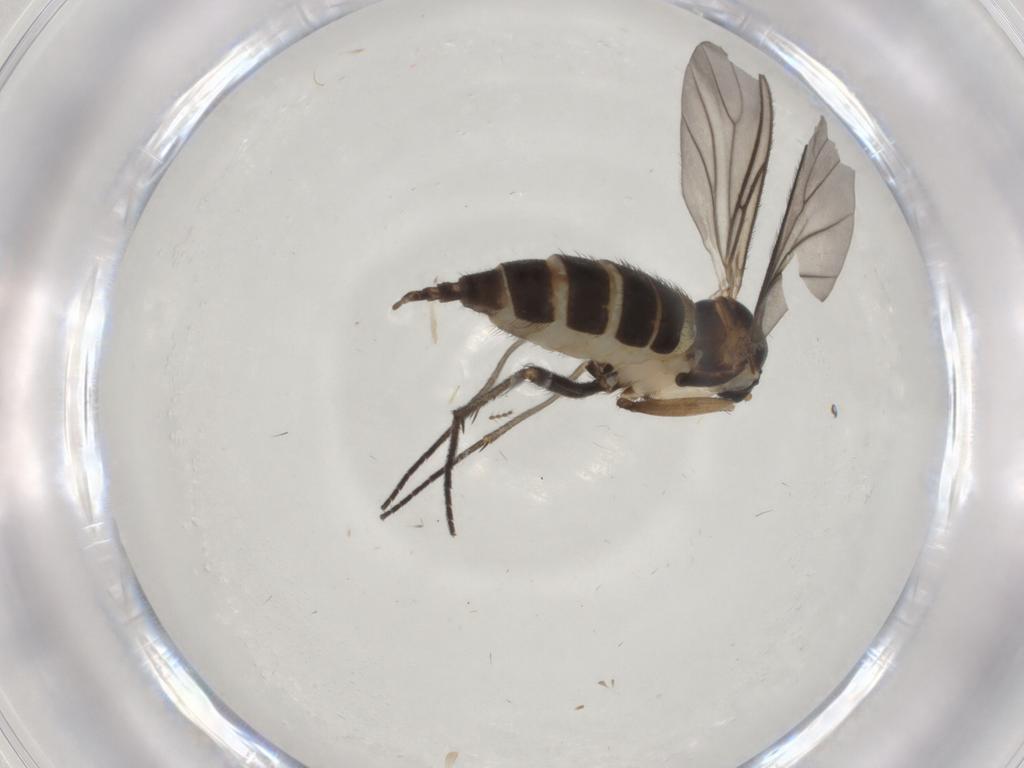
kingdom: Animalia
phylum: Arthropoda
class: Insecta
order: Diptera
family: Sciaridae
